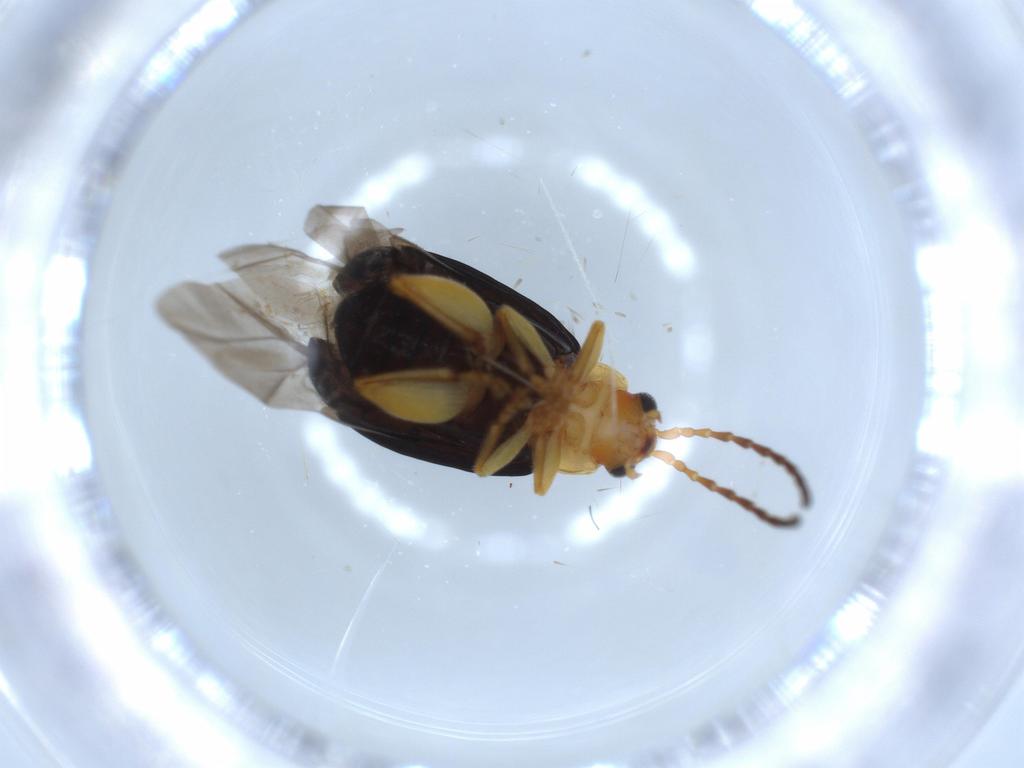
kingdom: Animalia
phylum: Arthropoda
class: Insecta
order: Coleoptera
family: Chrysomelidae
